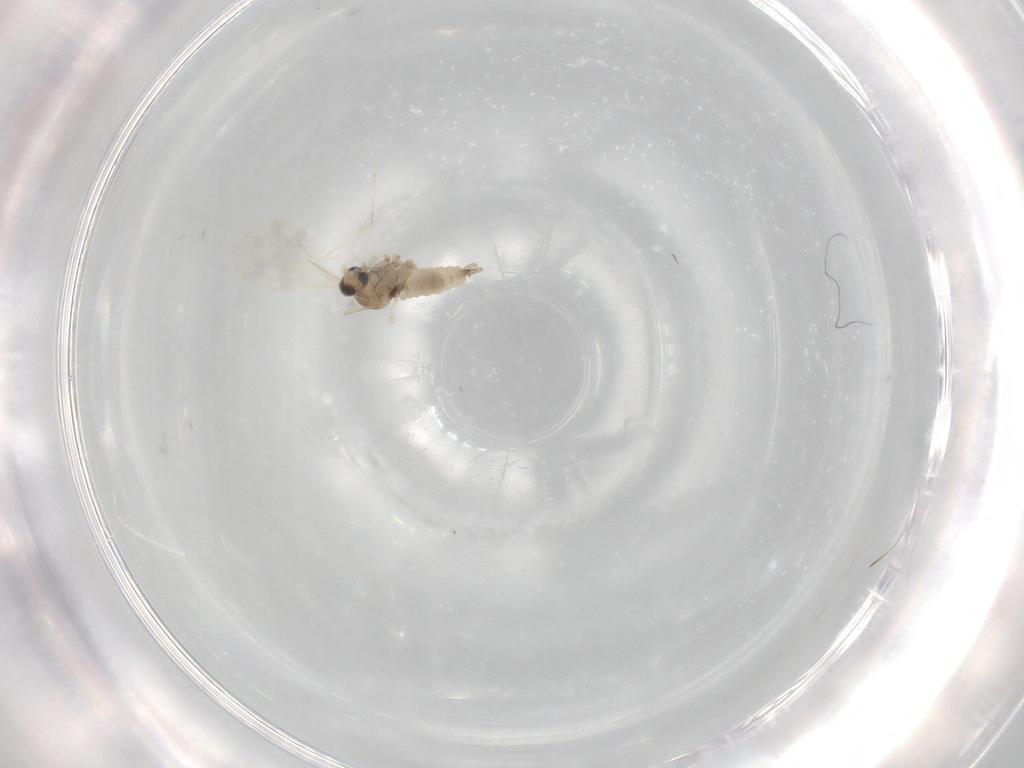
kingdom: Animalia
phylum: Arthropoda
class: Insecta
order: Diptera
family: Cecidomyiidae
